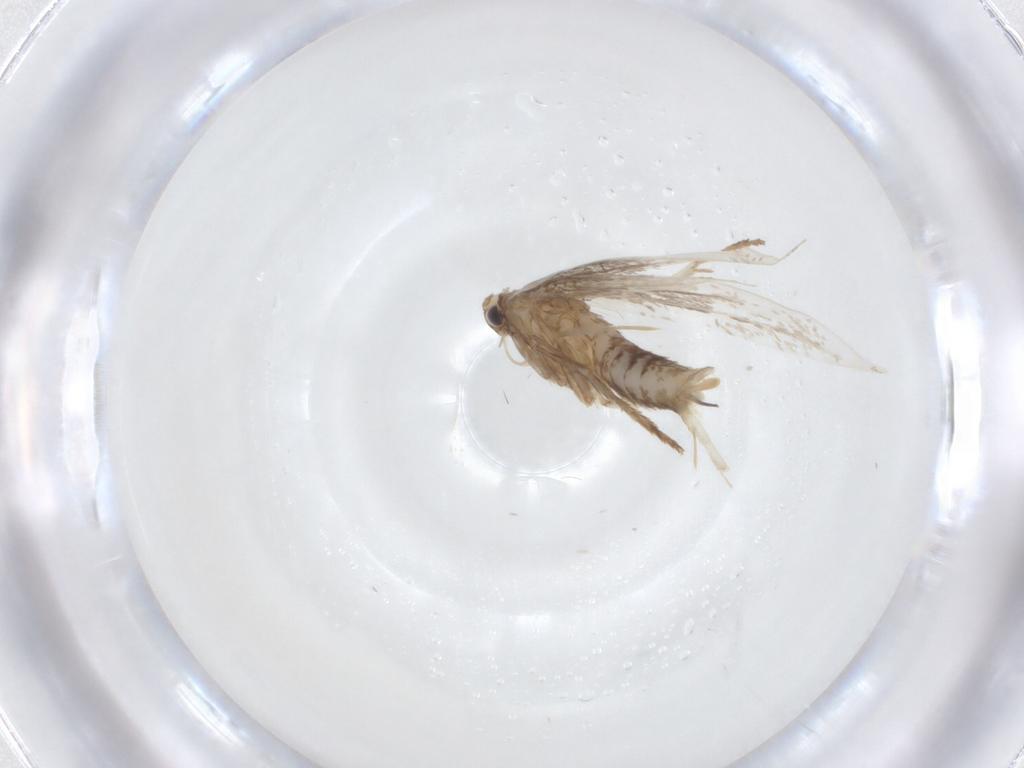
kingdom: Animalia
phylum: Arthropoda
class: Insecta
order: Lepidoptera
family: Gracillariidae
